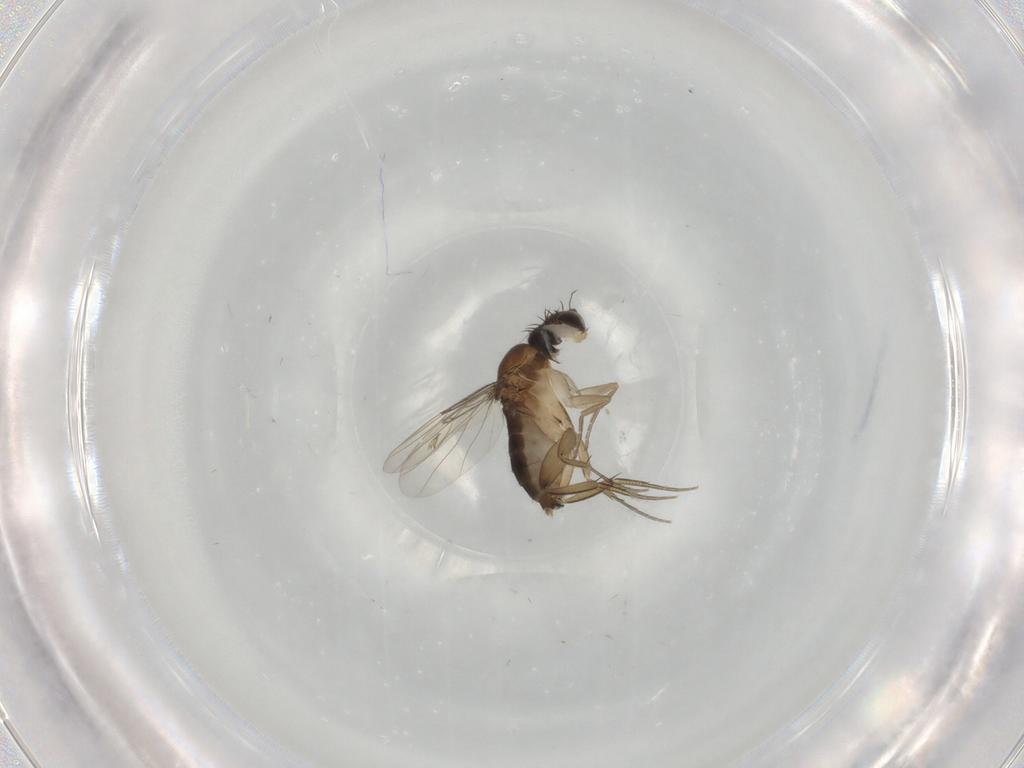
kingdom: Animalia
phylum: Arthropoda
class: Insecta
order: Diptera
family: Phoridae
